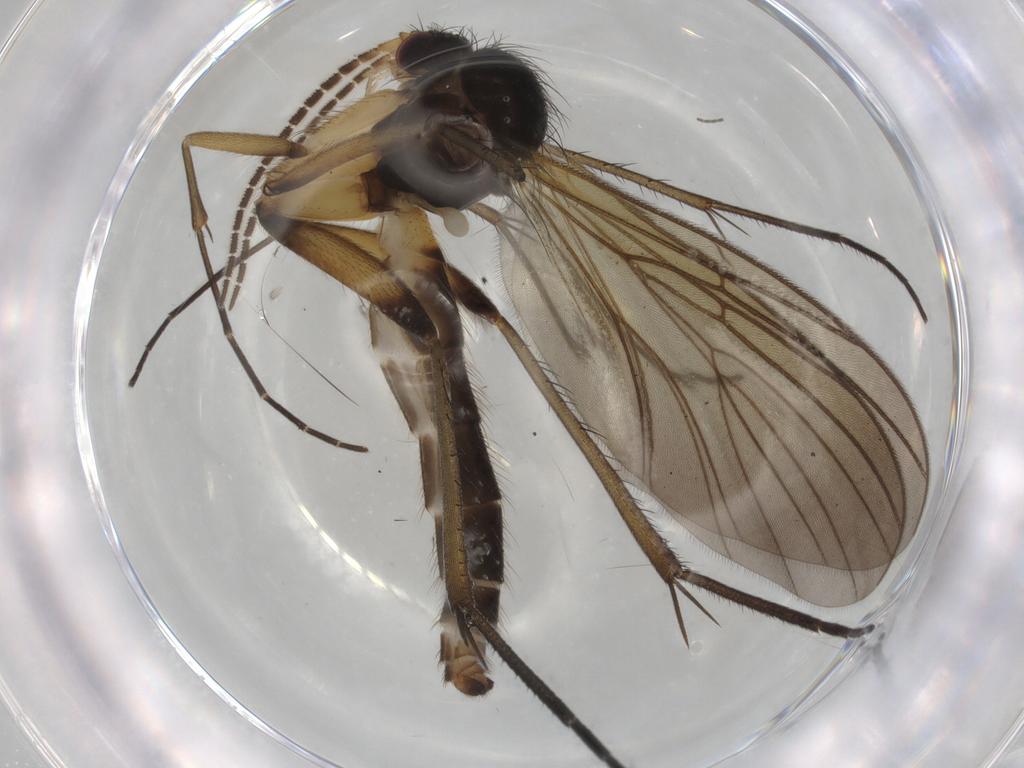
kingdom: Animalia
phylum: Arthropoda
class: Insecta
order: Diptera
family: Mycetophilidae
